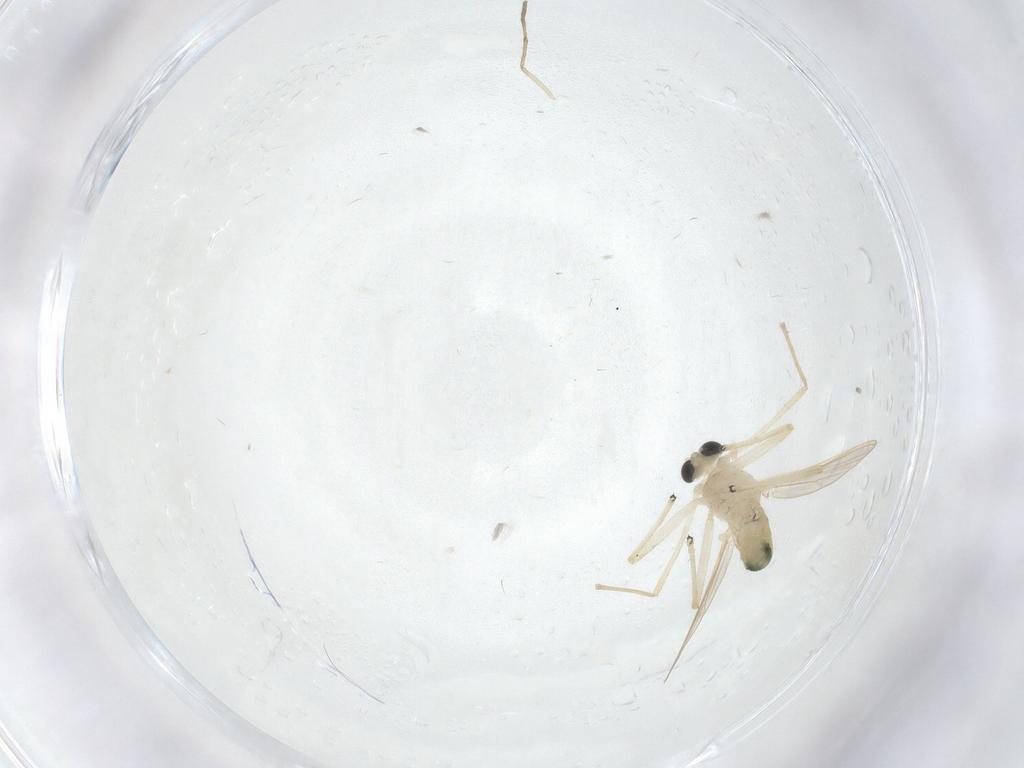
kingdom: Animalia
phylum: Arthropoda
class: Insecta
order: Diptera
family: Chironomidae
